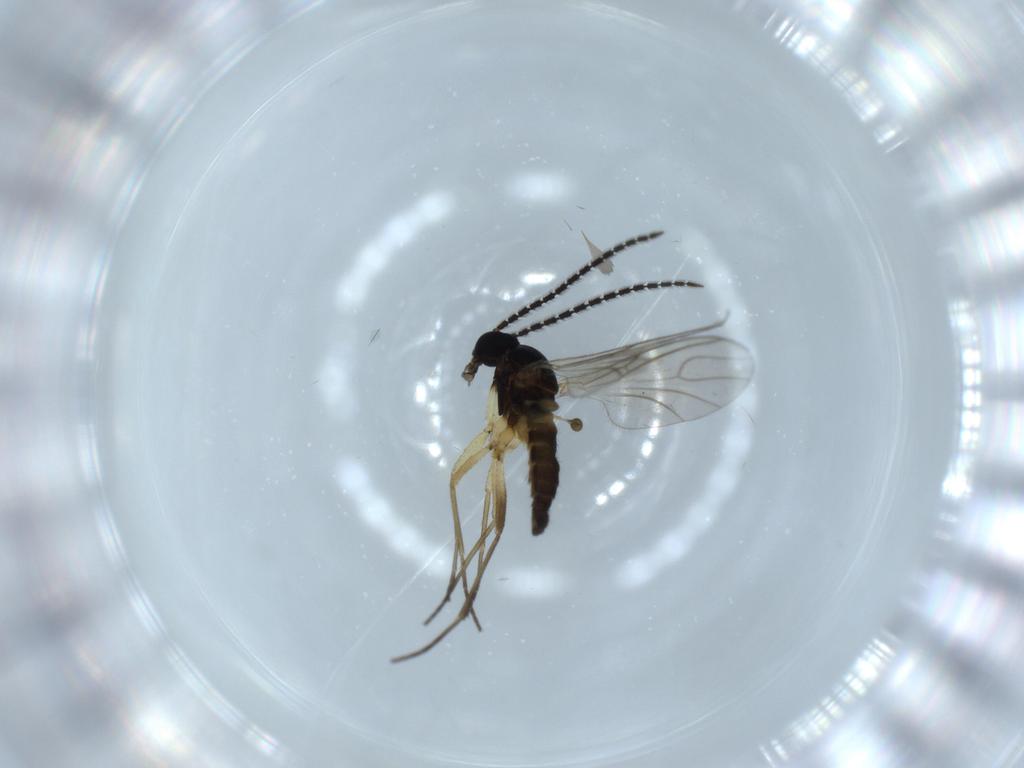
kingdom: Animalia
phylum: Arthropoda
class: Insecta
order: Diptera
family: Sciaridae
